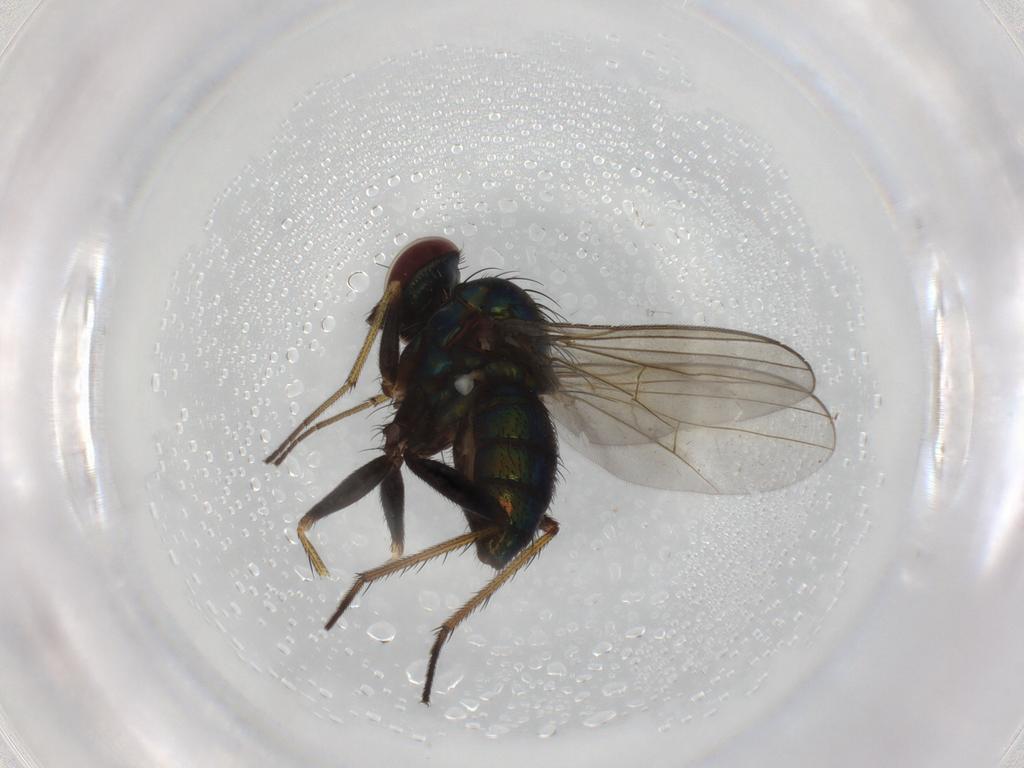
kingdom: Animalia
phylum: Arthropoda
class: Insecta
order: Diptera
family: Dolichopodidae
